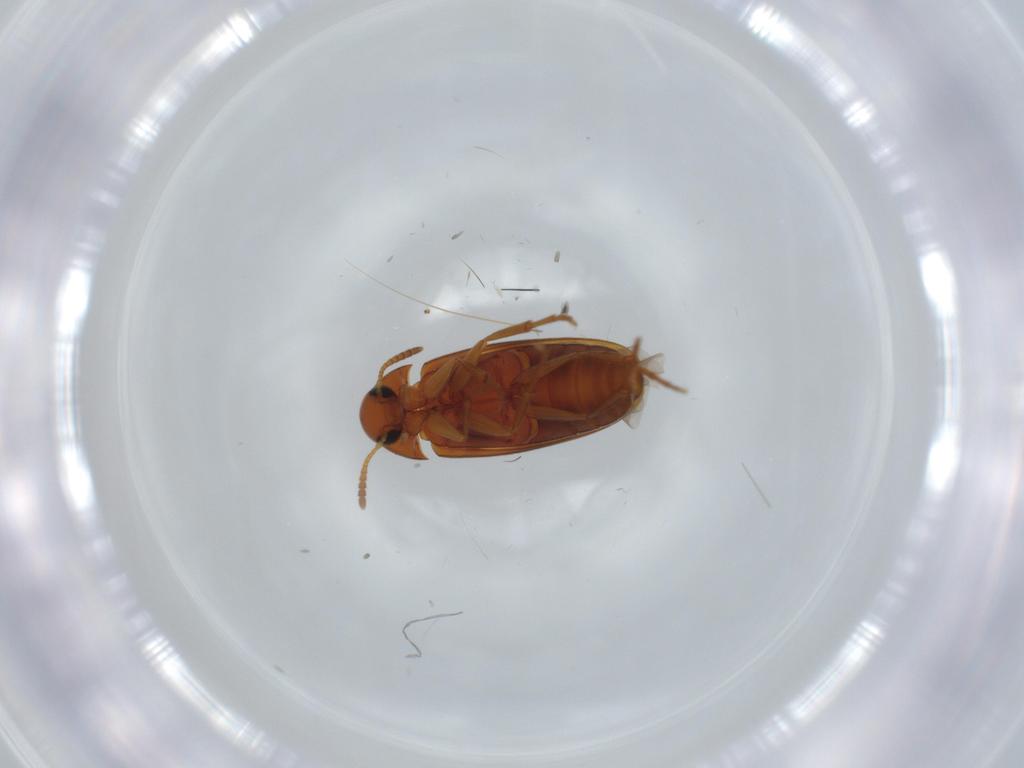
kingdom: Animalia
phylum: Arthropoda
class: Insecta
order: Coleoptera
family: Scraptiidae
